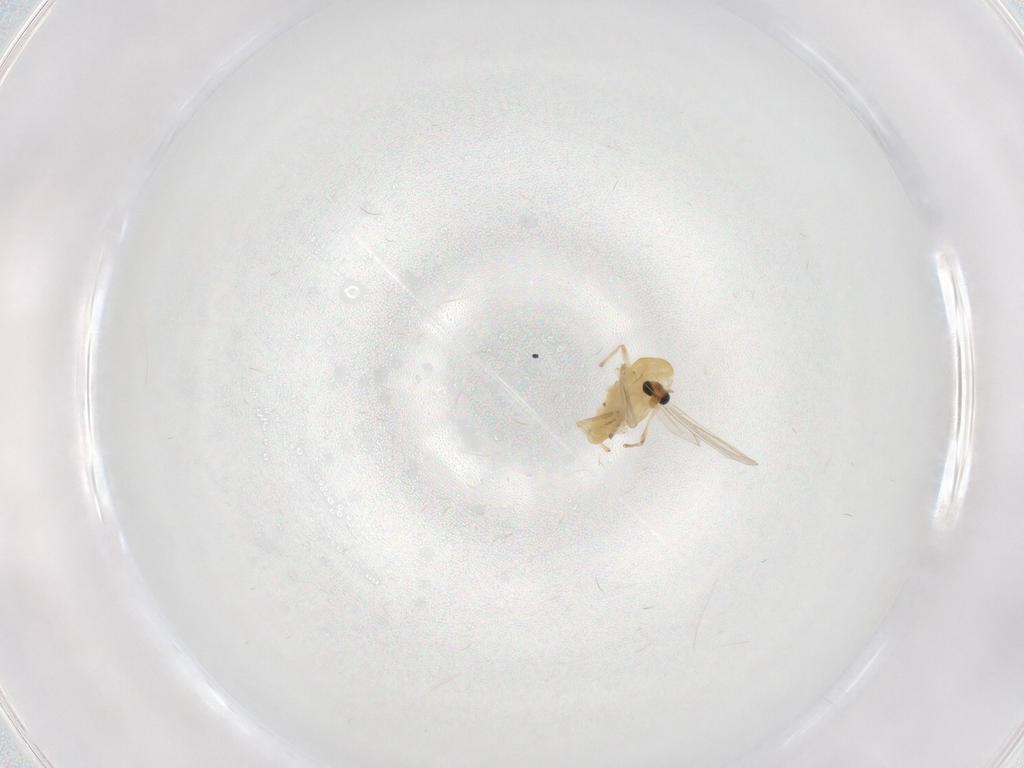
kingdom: Animalia
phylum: Arthropoda
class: Insecta
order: Diptera
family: Chironomidae
